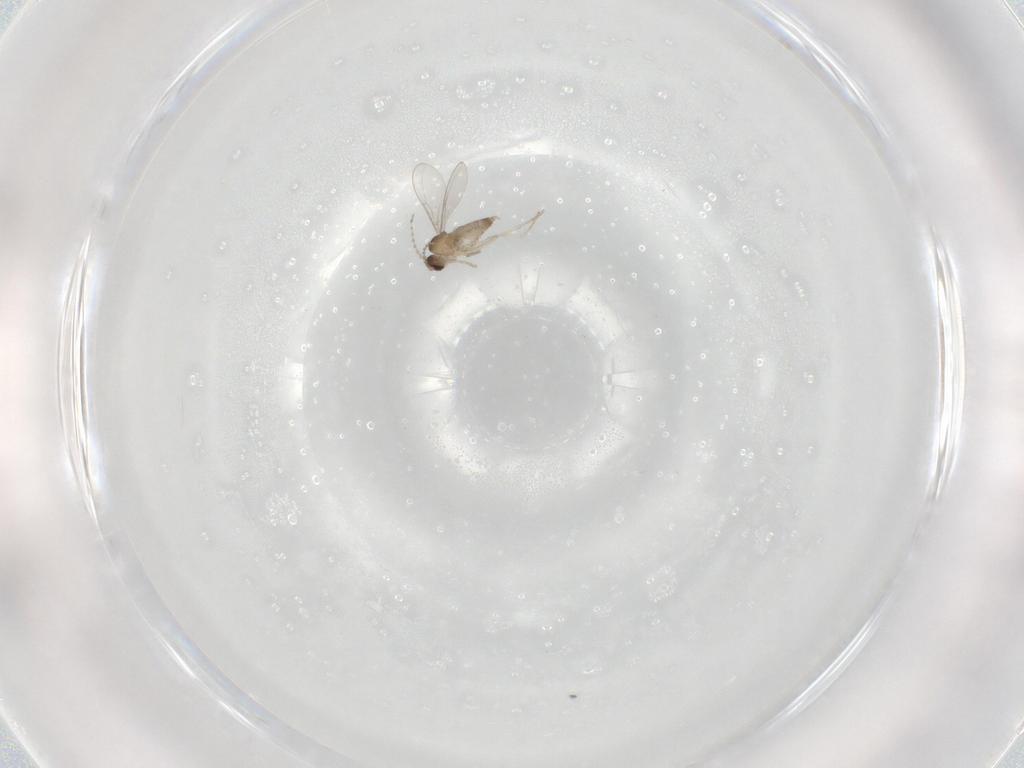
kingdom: Animalia
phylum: Arthropoda
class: Insecta
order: Diptera
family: Cecidomyiidae
